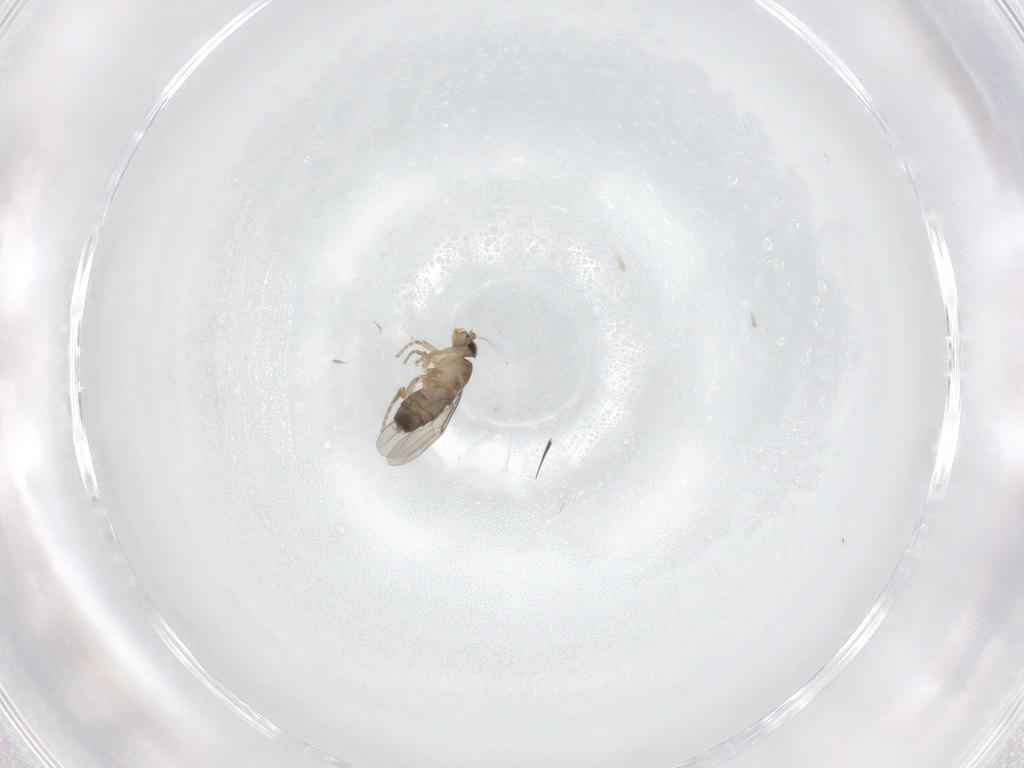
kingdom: Animalia
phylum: Arthropoda
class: Insecta
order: Diptera
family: Phoridae
